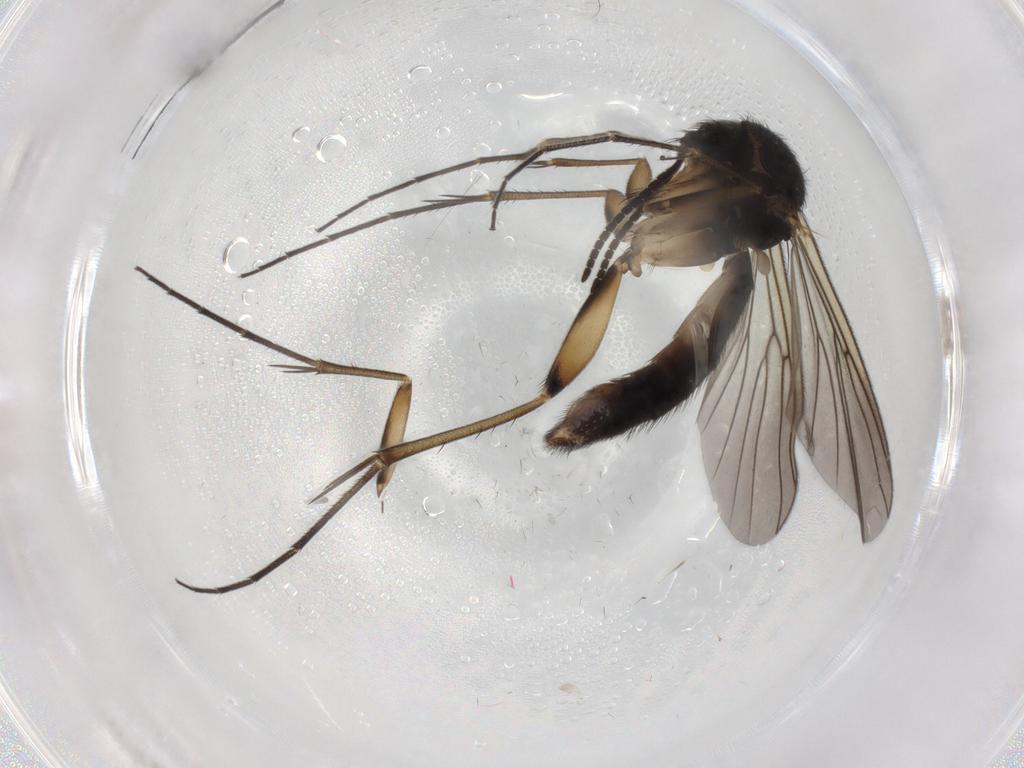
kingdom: Animalia
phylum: Arthropoda
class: Insecta
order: Diptera
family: Mycetophilidae
